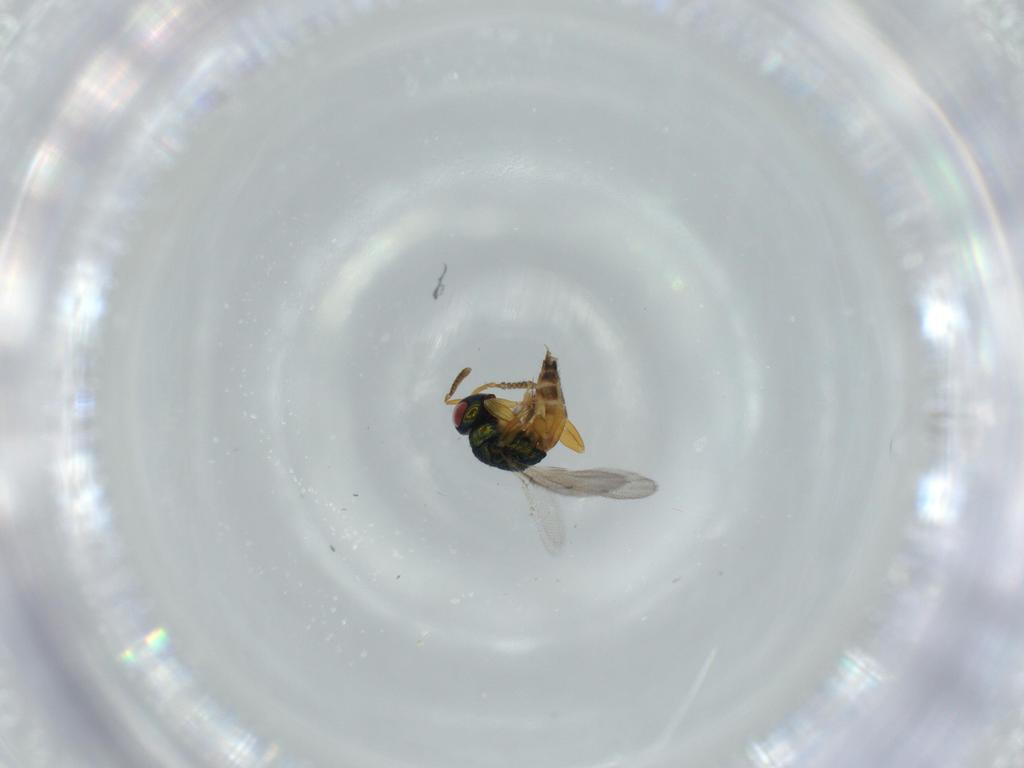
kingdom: Animalia
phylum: Arthropoda
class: Insecta
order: Hymenoptera
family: Pteromalidae
